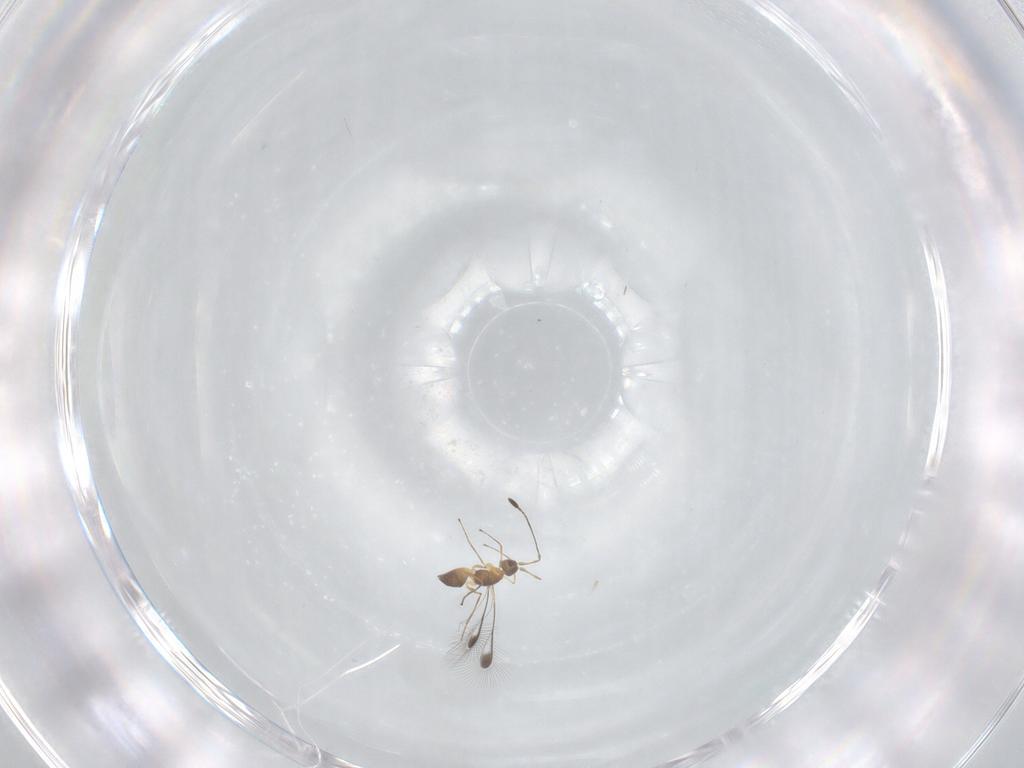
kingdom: Animalia
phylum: Arthropoda
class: Insecta
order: Hymenoptera
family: Mymaridae
